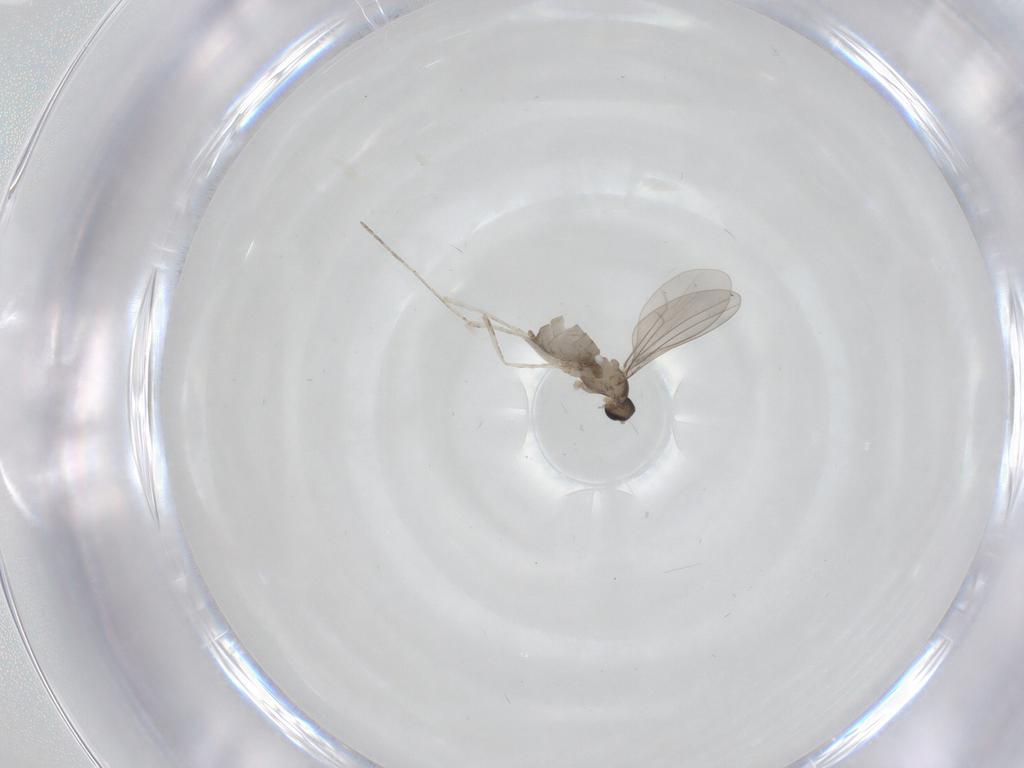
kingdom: Animalia
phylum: Arthropoda
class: Insecta
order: Diptera
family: Cecidomyiidae
